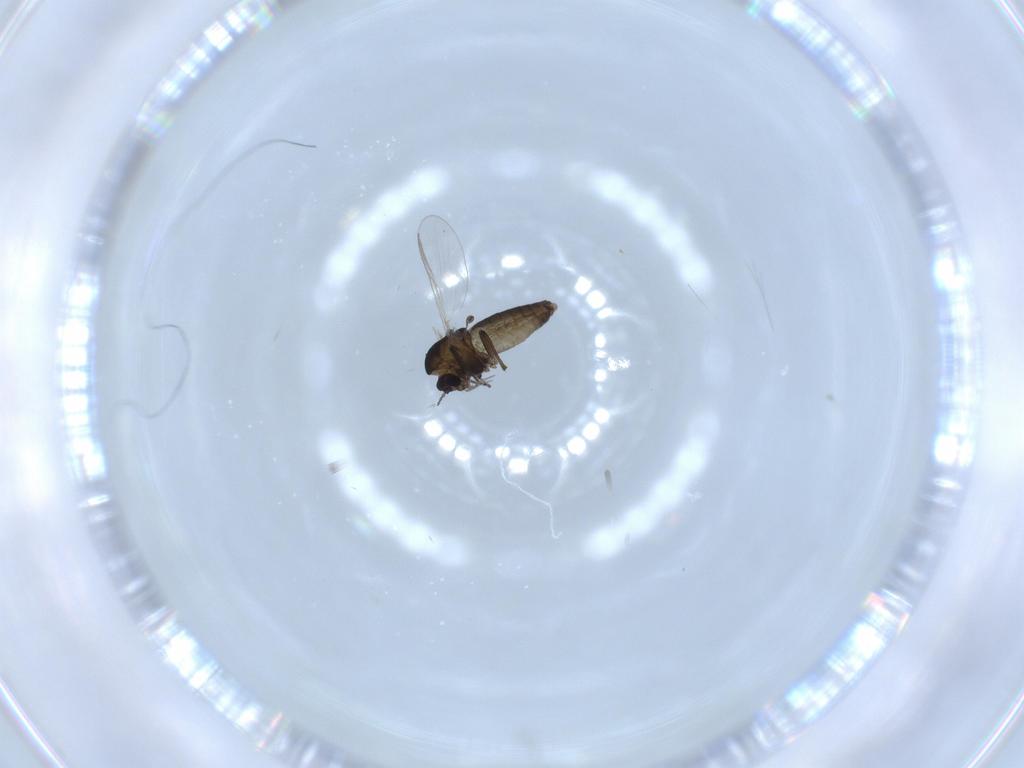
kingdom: Animalia
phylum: Arthropoda
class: Insecta
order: Diptera
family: Chironomidae
